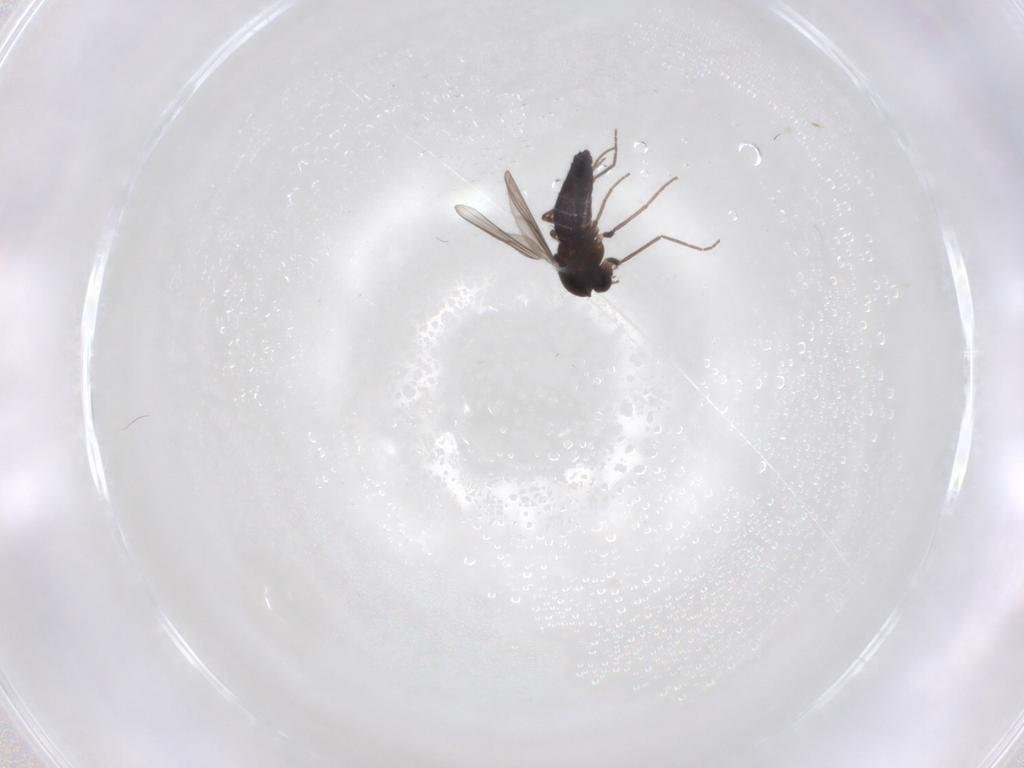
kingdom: Animalia
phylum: Arthropoda
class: Insecta
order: Diptera
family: Chironomidae
